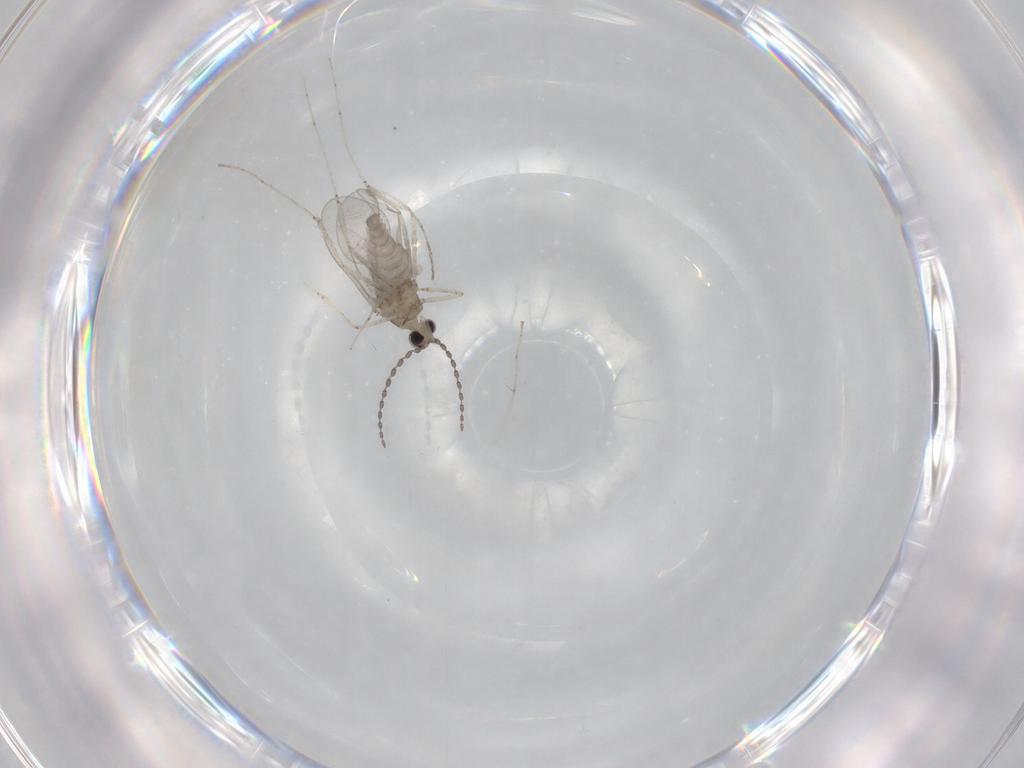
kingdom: Animalia
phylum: Arthropoda
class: Insecta
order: Diptera
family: Cecidomyiidae
